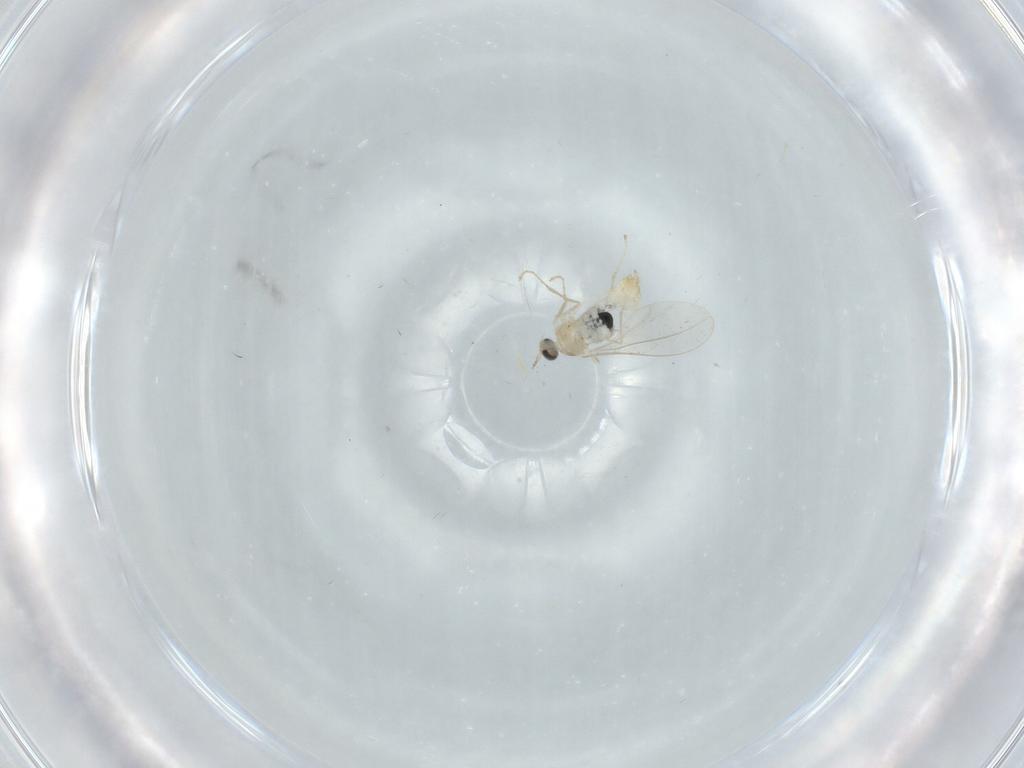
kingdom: Animalia
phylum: Arthropoda
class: Insecta
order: Diptera
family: Cecidomyiidae
